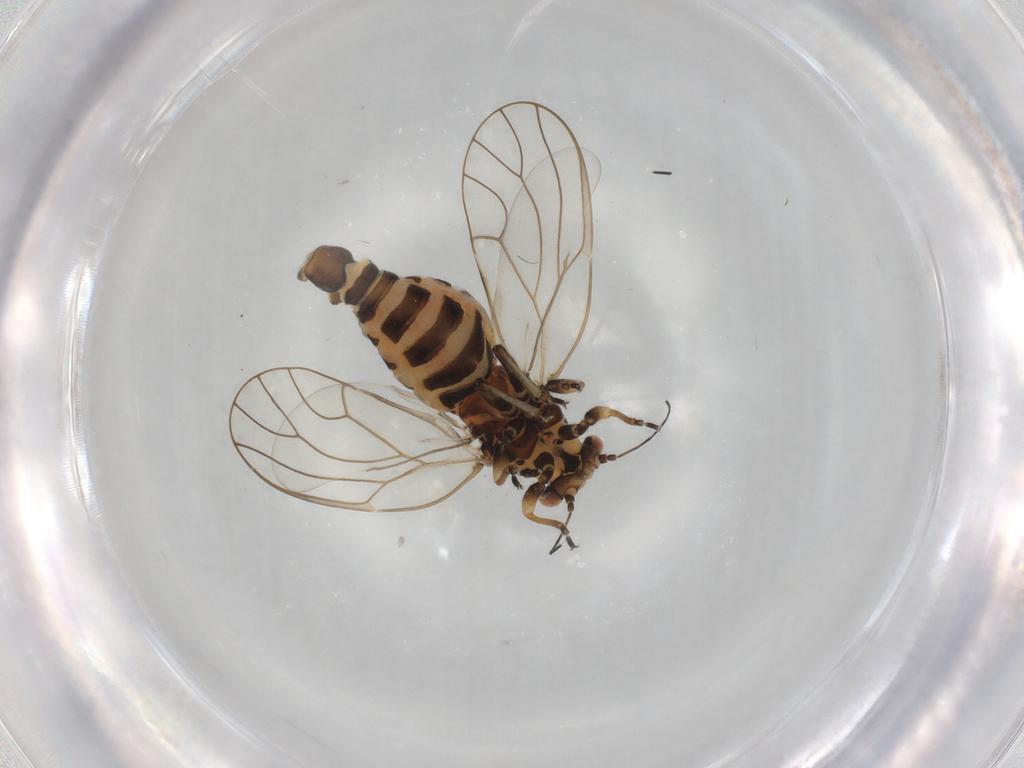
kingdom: Animalia
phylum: Arthropoda
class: Insecta
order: Hemiptera
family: Cicadellidae
